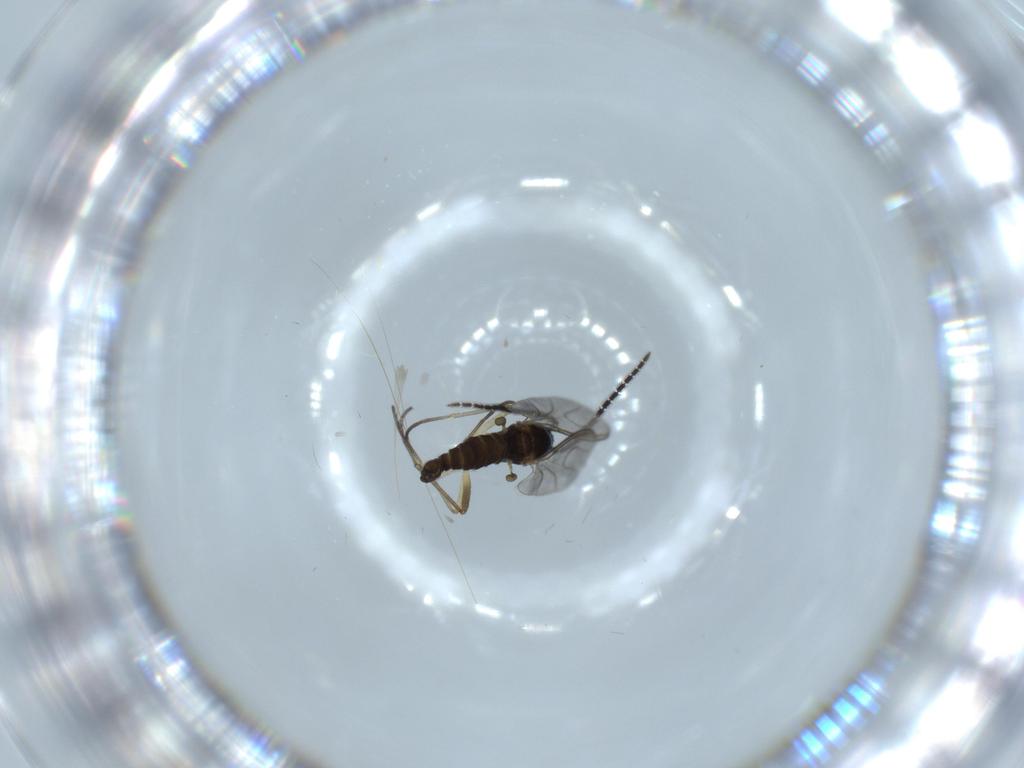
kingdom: Animalia
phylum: Arthropoda
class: Insecta
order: Diptera
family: Sciaridae
